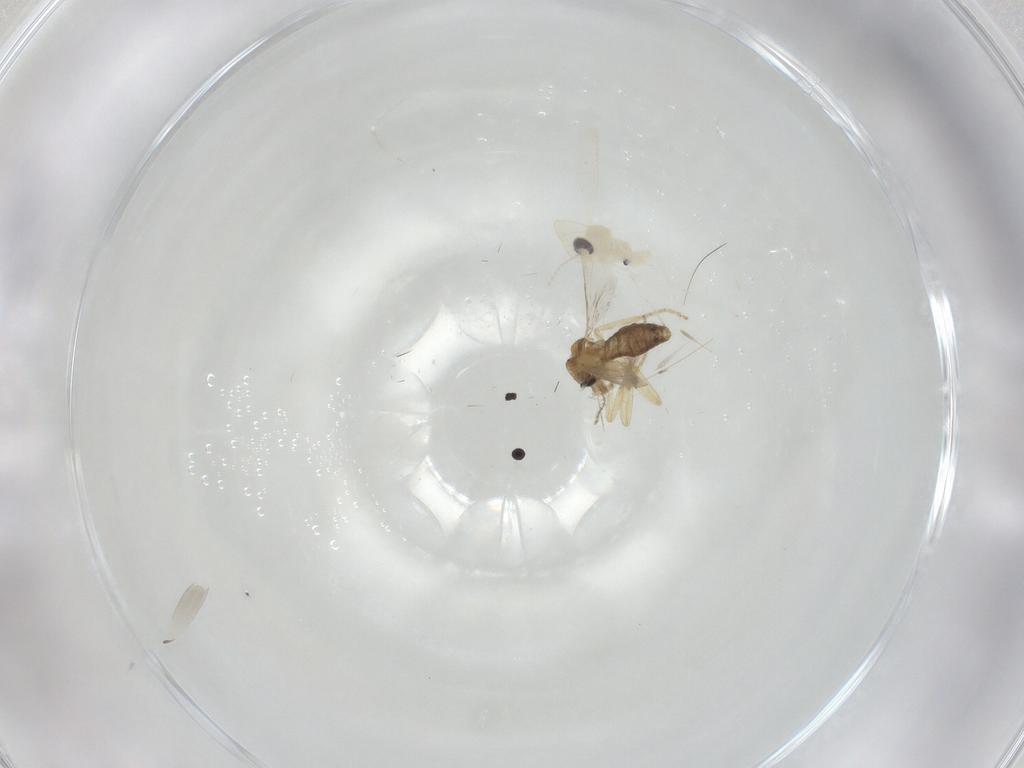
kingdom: Animalia
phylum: Arthropoda
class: Insecta
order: Diptera
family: Ceratopogonidae
